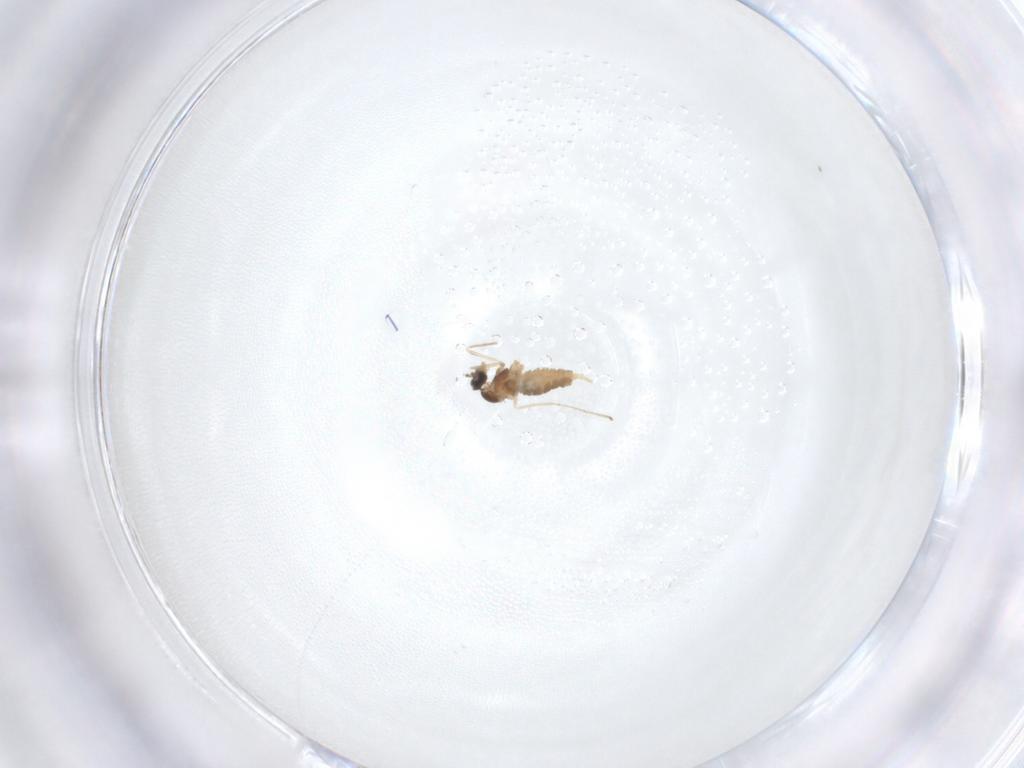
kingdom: Animalia
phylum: Arthropoda
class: Insecta
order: Diptera
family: Cecidomyiidae
